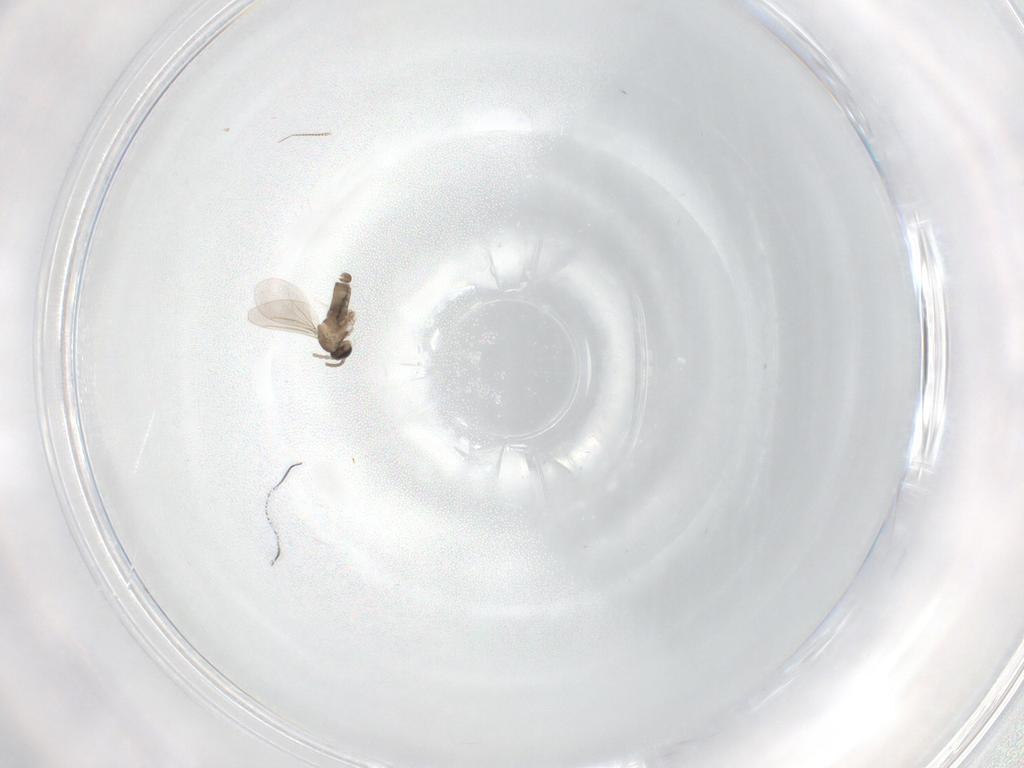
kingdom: Animalia
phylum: Arthropoda
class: Insecta
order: Diptera
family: Chironomidae
